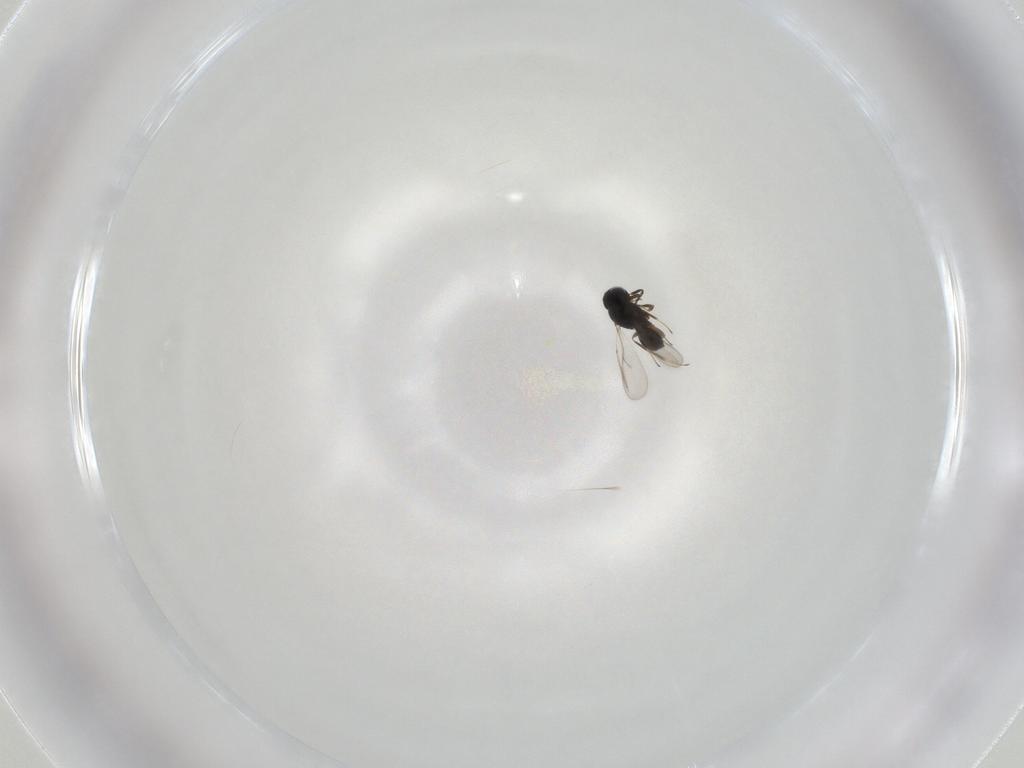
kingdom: Animalia
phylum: Arthropoda
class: Insecta
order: Hymenoptera
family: Scelionidae
